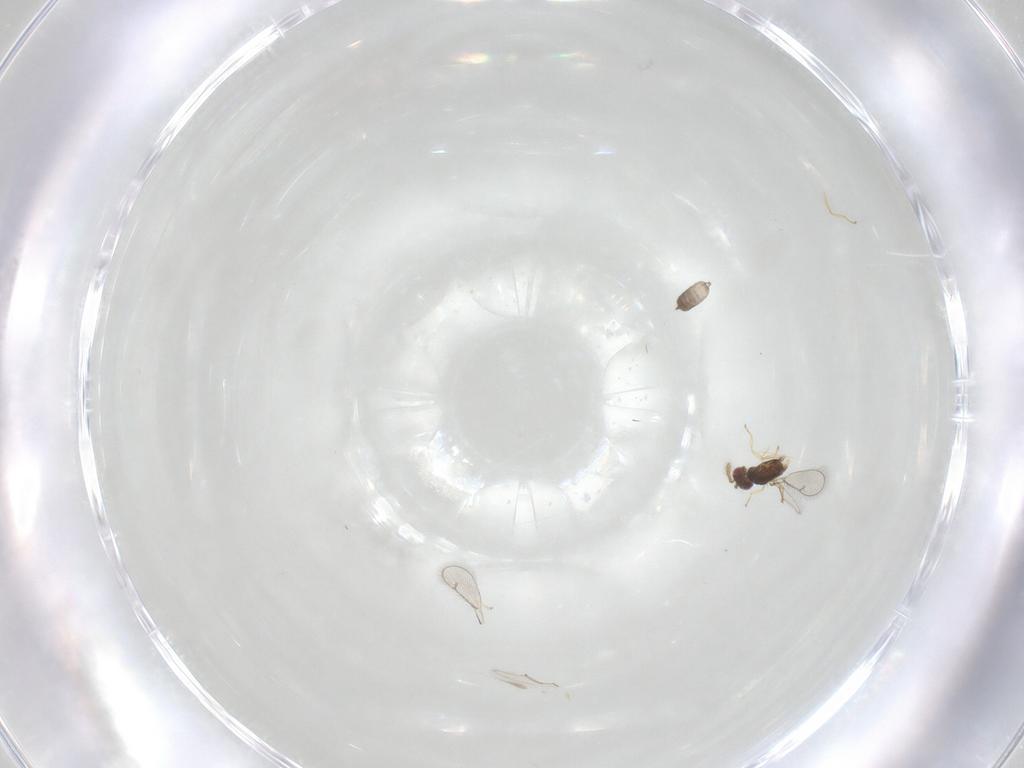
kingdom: Animalia
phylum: Arthropoda
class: Insecta
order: Hymenoptera
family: Eulophidae
